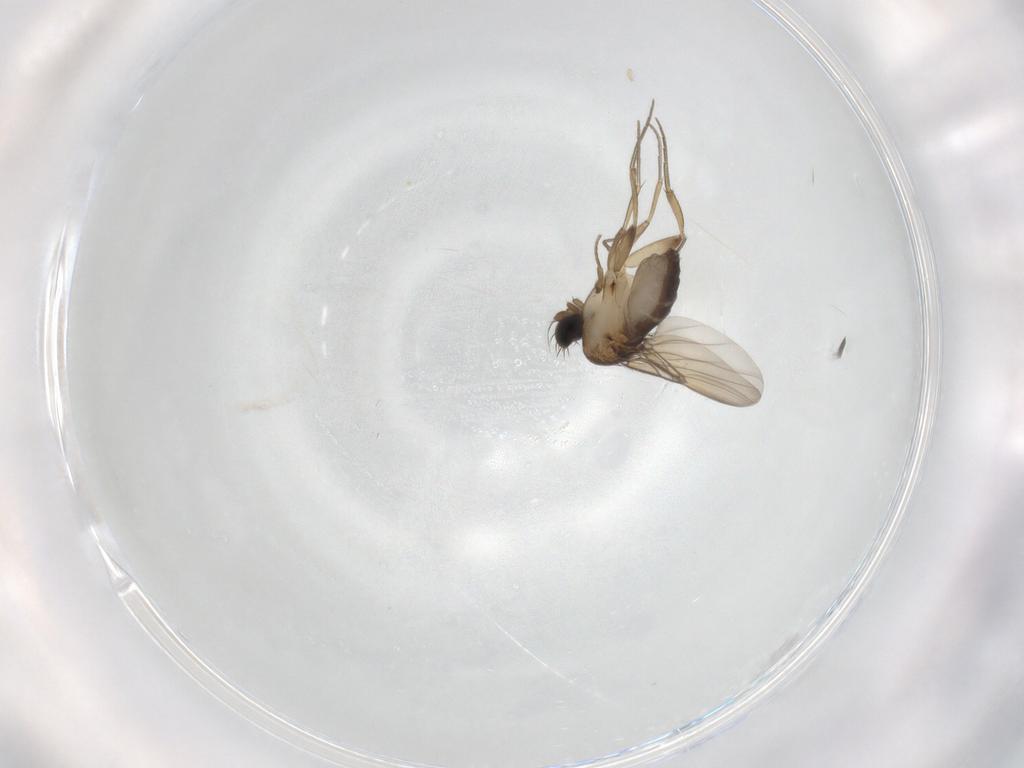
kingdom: Animalia
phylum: Arthropoda
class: Insecta
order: Diptera
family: Phoridae
